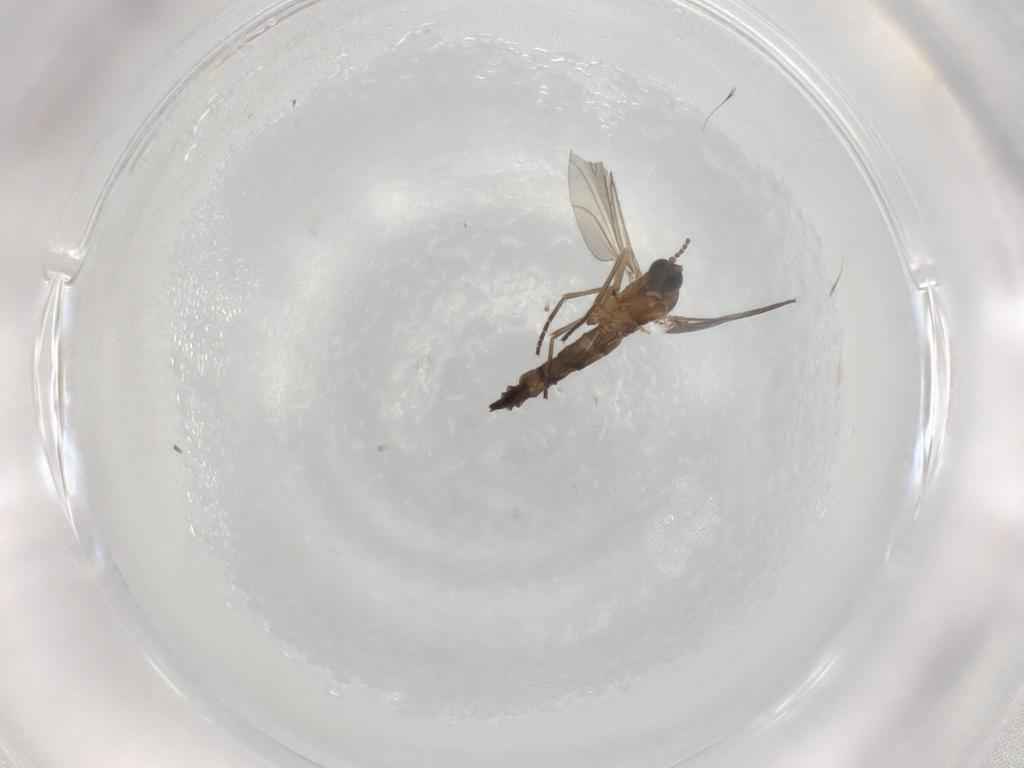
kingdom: Animalia
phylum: Arthropoda
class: Insecta
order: Diptera
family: Sciaridae
